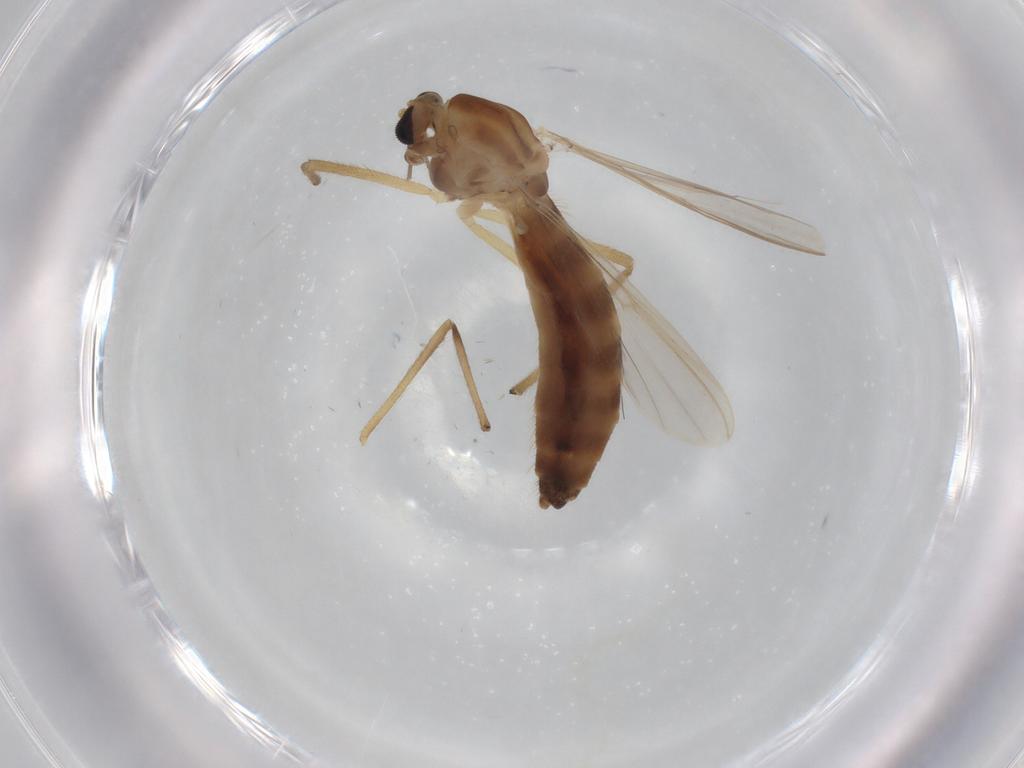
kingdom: Animalia
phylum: Arthropoda
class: Insecta
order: Diptera
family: Chironomidae
